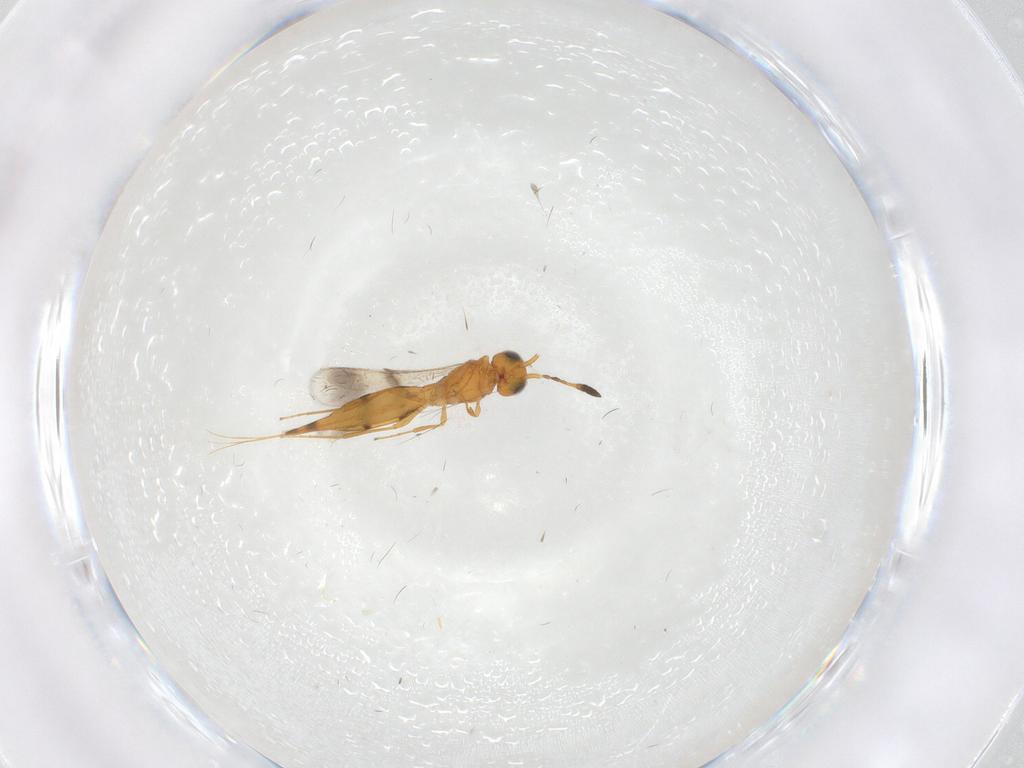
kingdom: Animalia
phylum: Arthropoda
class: Insecta
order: Hymenoptera
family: Scelionidae
